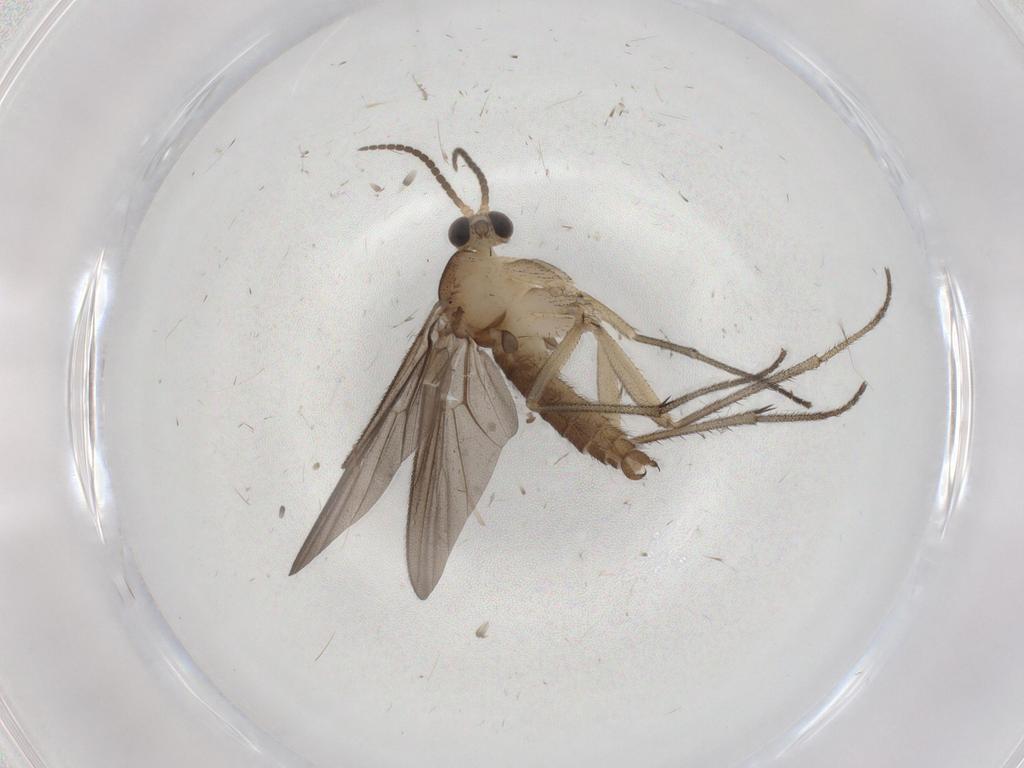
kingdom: Animalia
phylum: Arthropoda
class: Insecta
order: Diptera
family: Diadocidiidae
